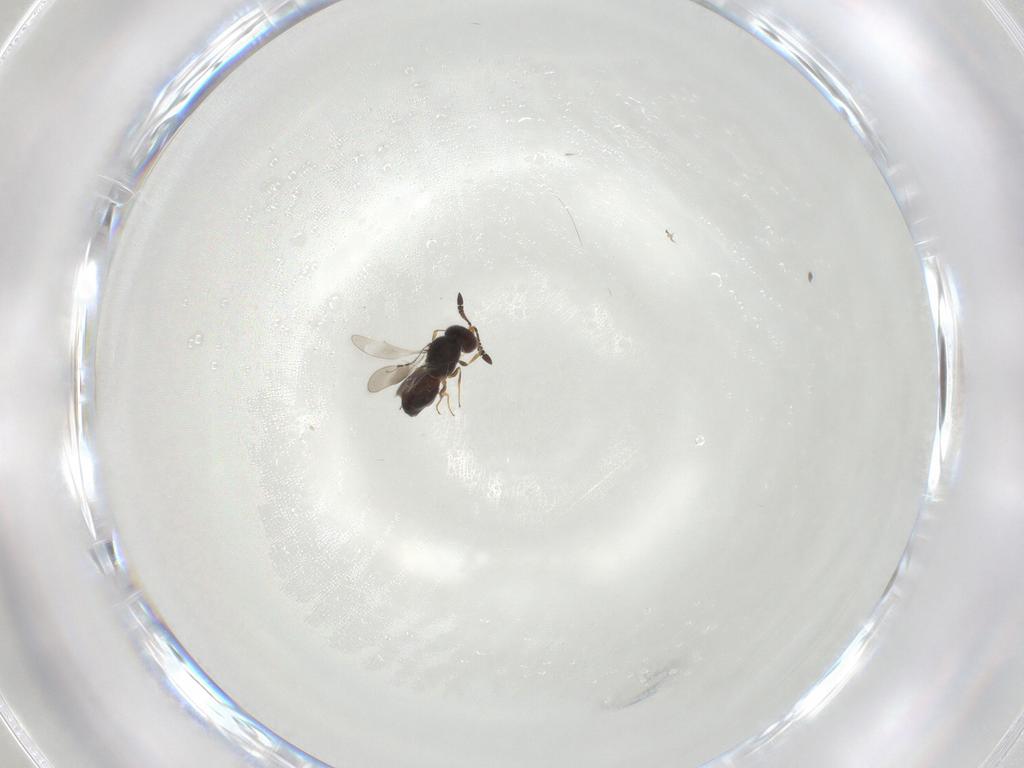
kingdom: Animalia
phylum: Arthropoda
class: Insecta
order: Hymenoptera
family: Scelionidae
